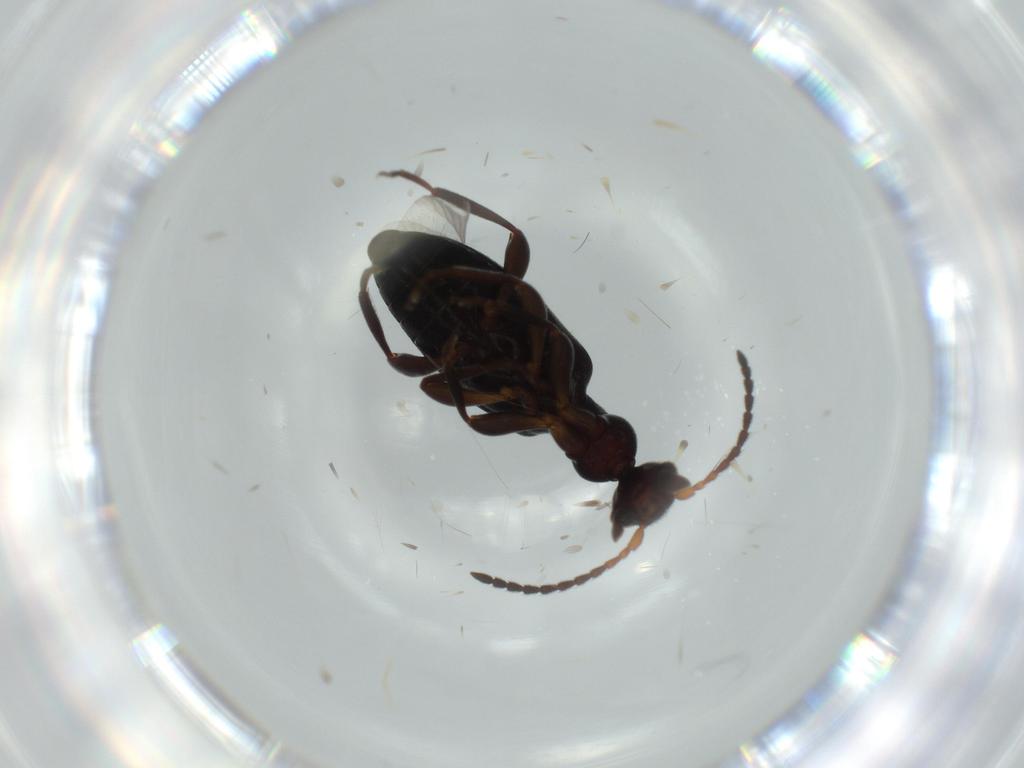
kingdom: Animalia
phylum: Arthropoda
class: Insecta
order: Coleoptera
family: Anthicidae
